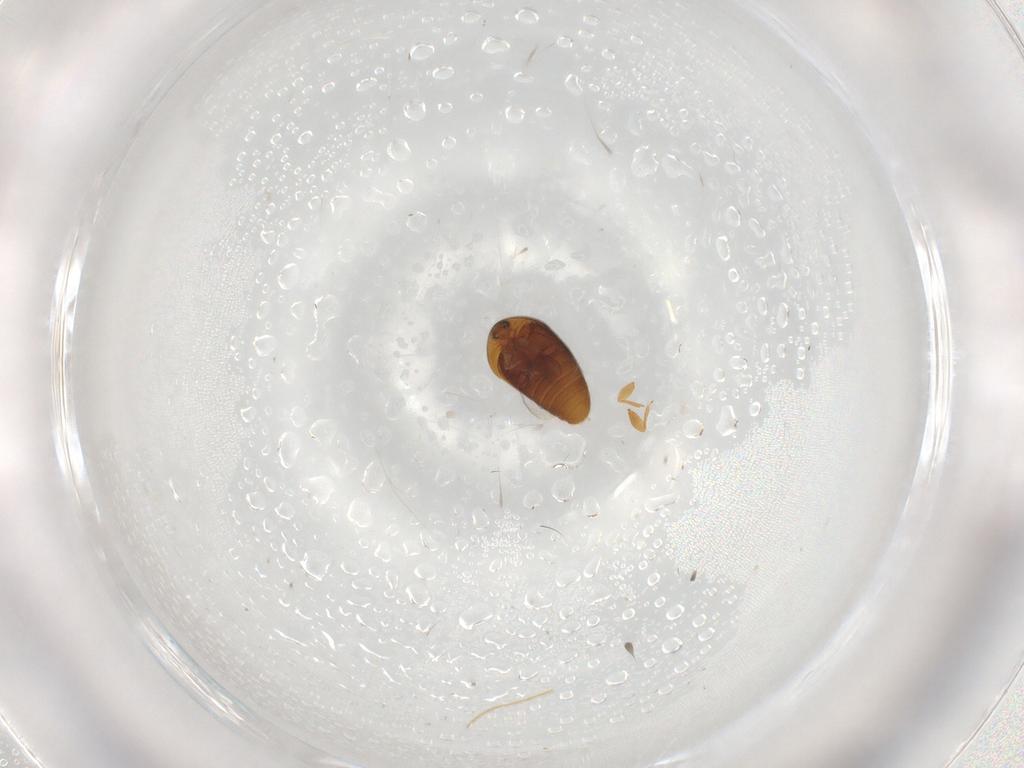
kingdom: Animalia
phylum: Arthropoda
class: Insecta
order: Coleoptera
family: Corylophidae
